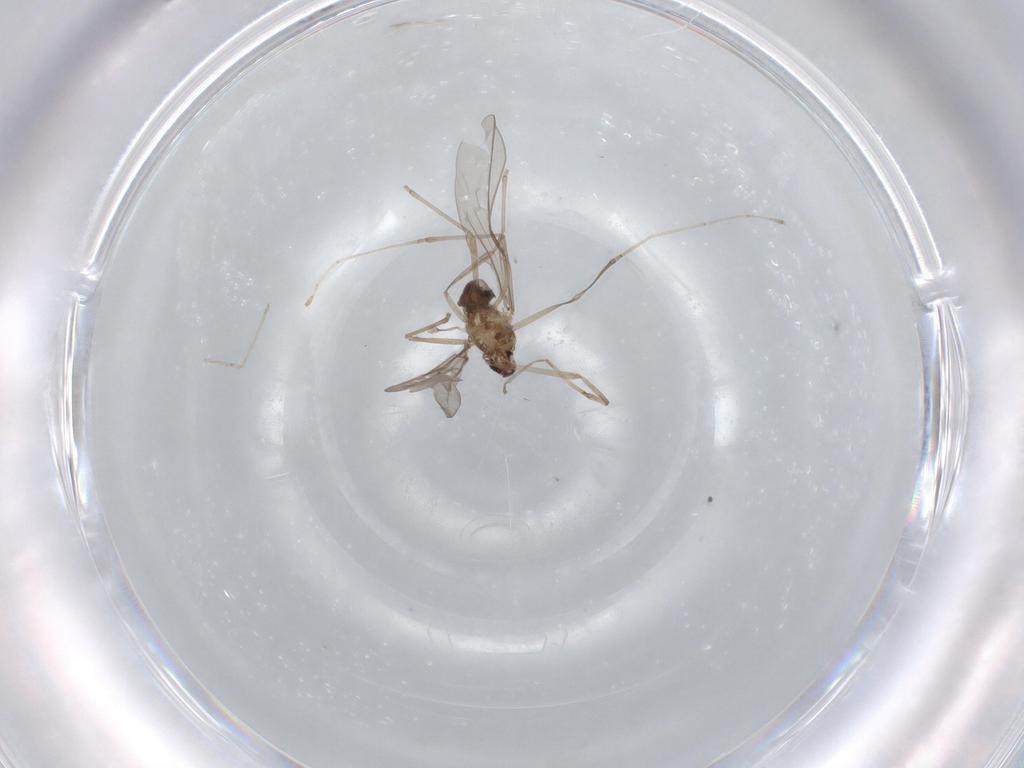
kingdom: Animalia
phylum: Arthropoda
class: Insecta
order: Diptera
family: Cecidomyiidae
